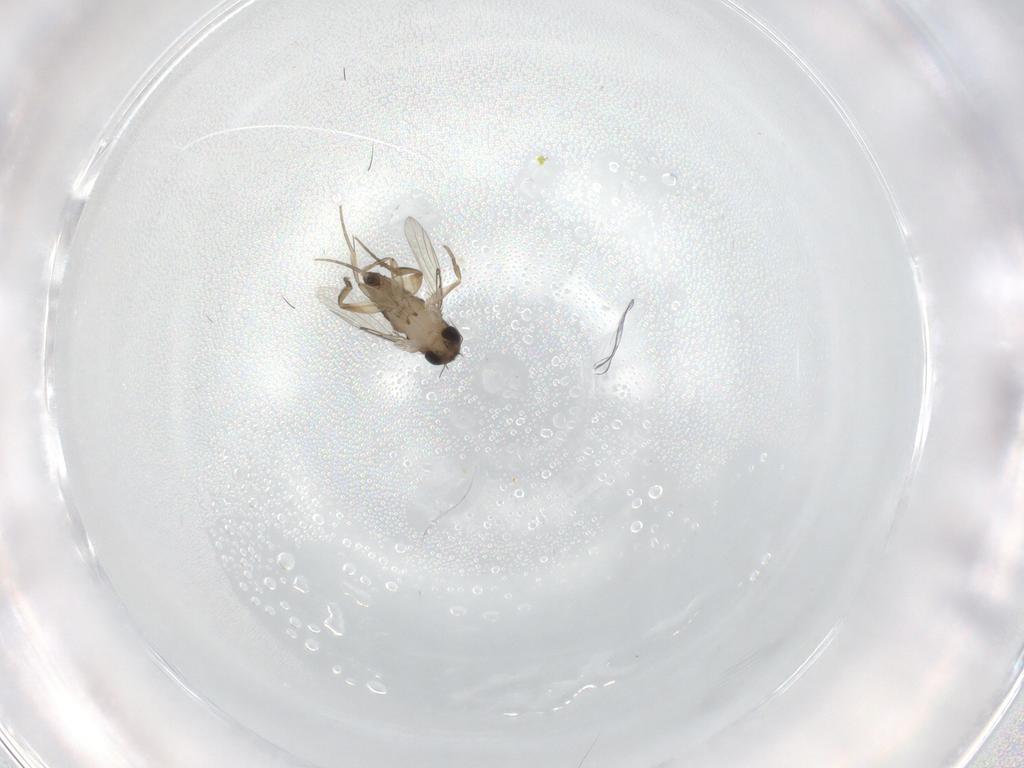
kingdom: Animalia
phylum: Arthropoda
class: Insecta
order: Diptera
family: Phoridae
